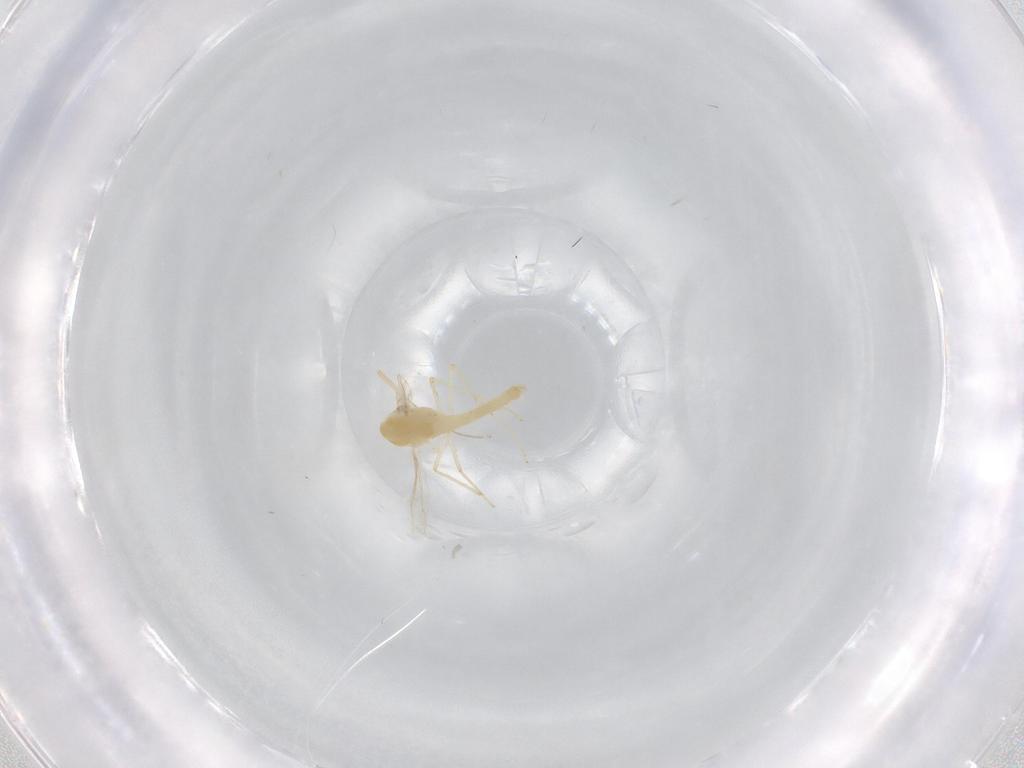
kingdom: Animalia
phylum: Arthropoda
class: Insecta
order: Diptera
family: Chironomidae
